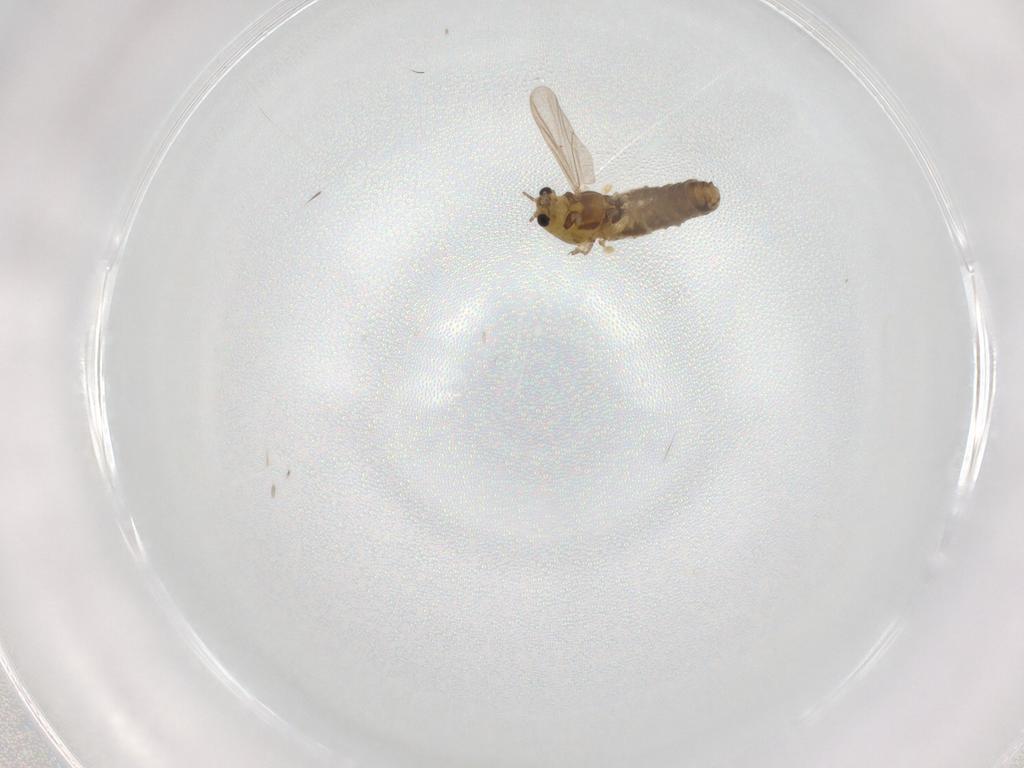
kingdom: Animalia
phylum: Arthropoda
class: Insecta
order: Diptera
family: Chironomidae
